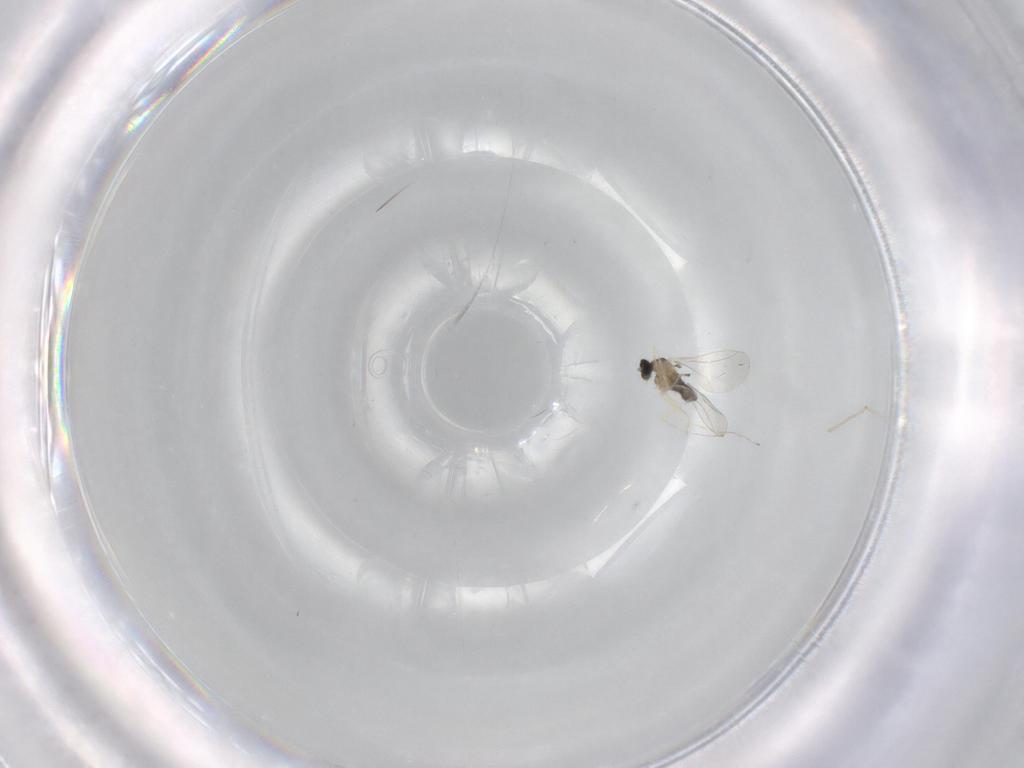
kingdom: Animalia
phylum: Arthropoda
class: Insecta
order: Diptera
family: Cecidomyiidae
